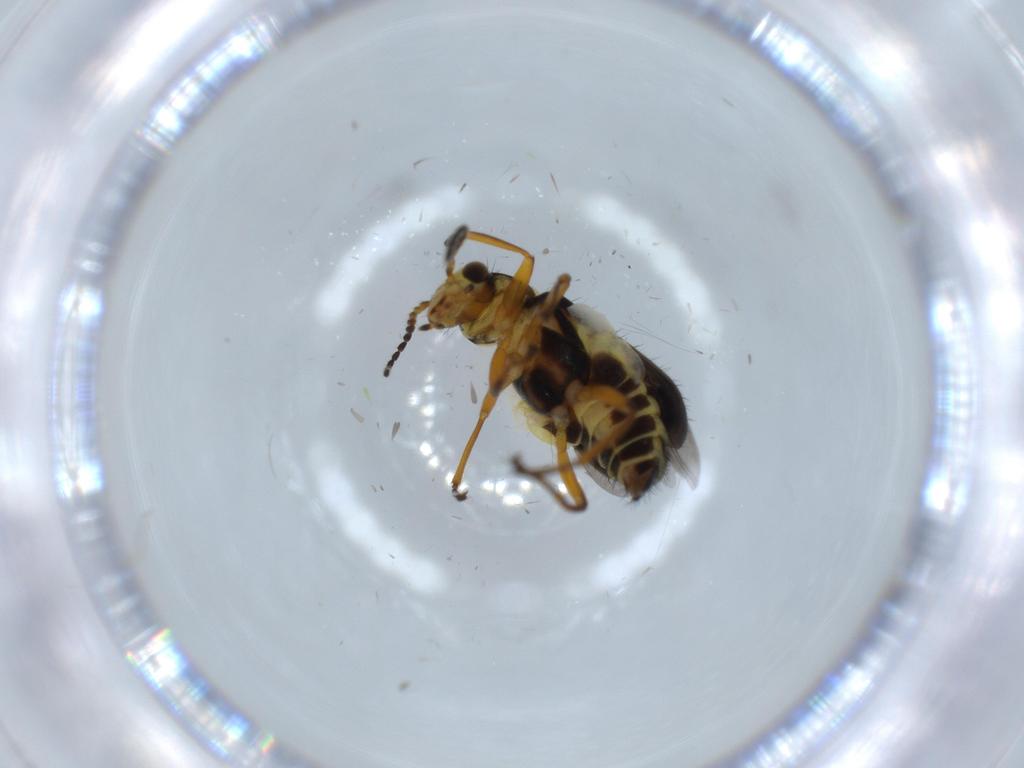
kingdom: Animalia
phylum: Arthropoda
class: Insecta
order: Coleoptera
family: Melyridae
